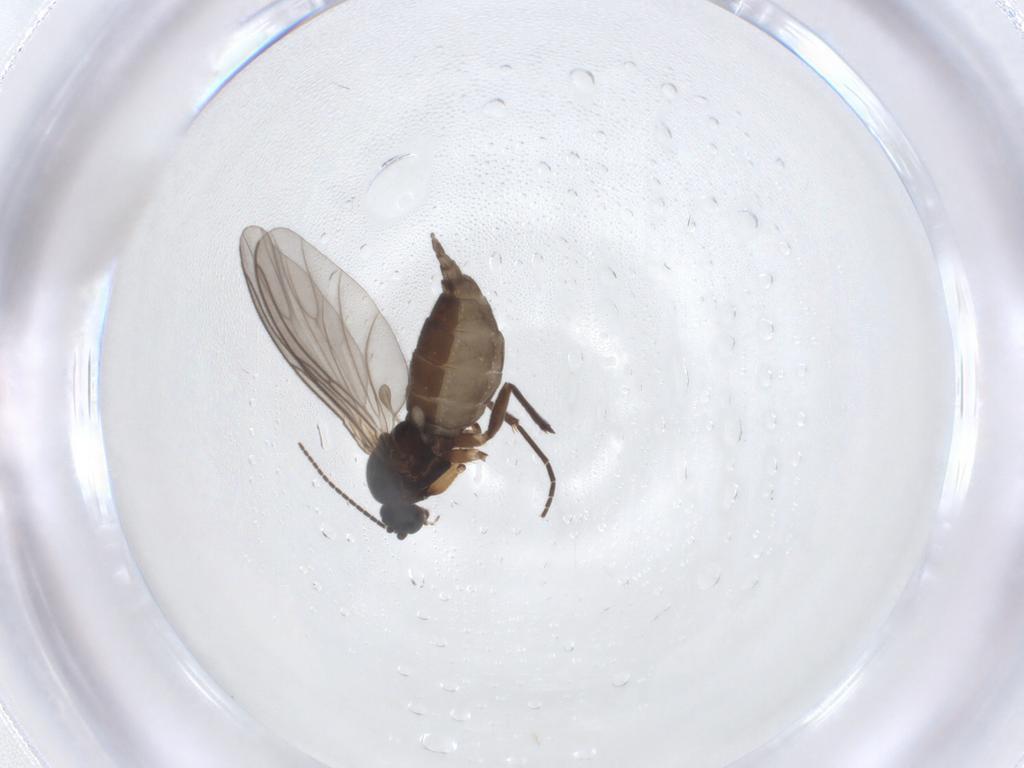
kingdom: Animalia
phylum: Arthropoda
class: Insecta
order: Diptera
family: Sciaridae
